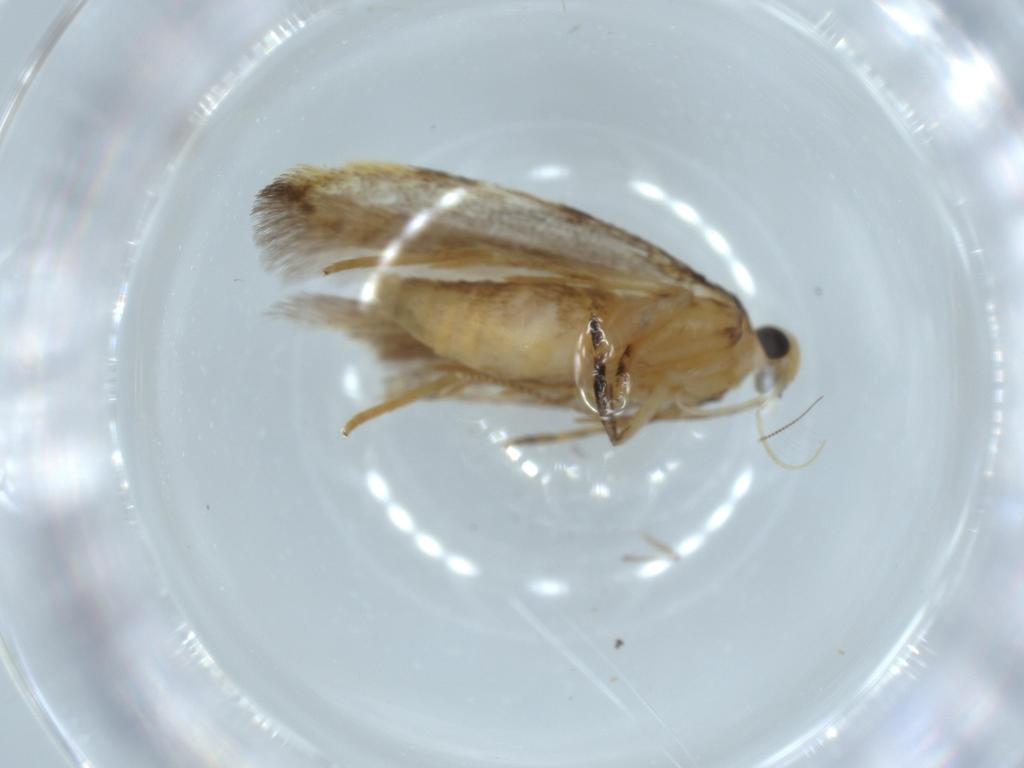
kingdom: Animalia
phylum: Arthropoda
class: Insecta
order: Lepidoptera
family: Autostichidae
